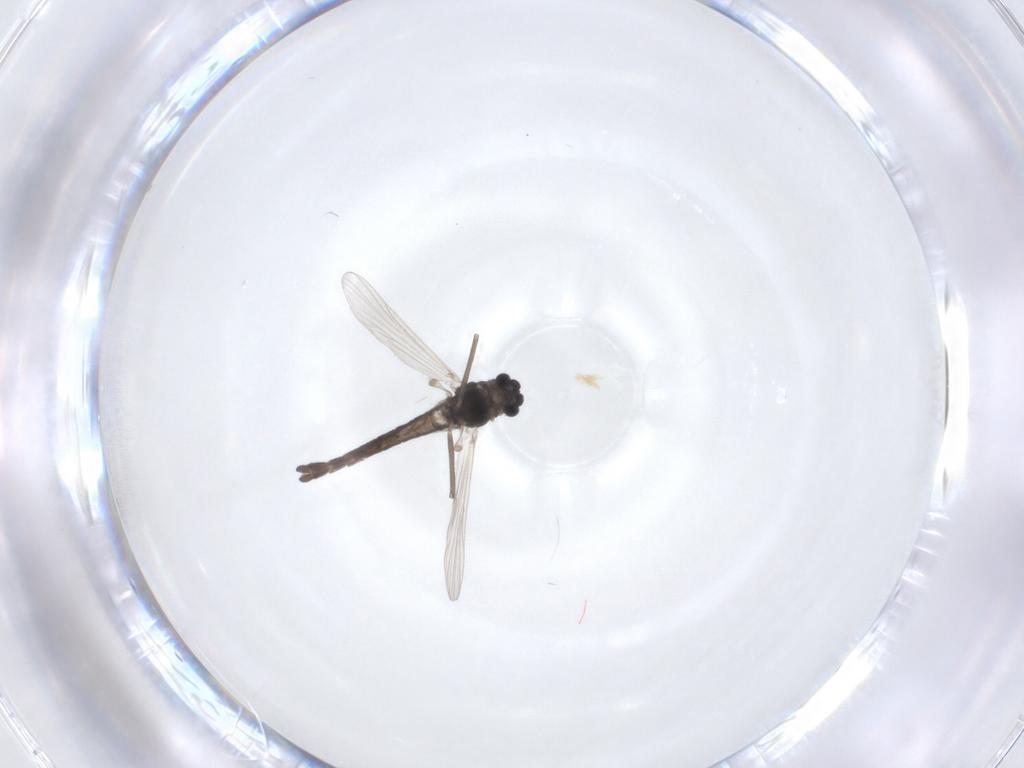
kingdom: Animalia
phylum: Arthropoda
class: Insecta
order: Diptera
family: Chironomidae
